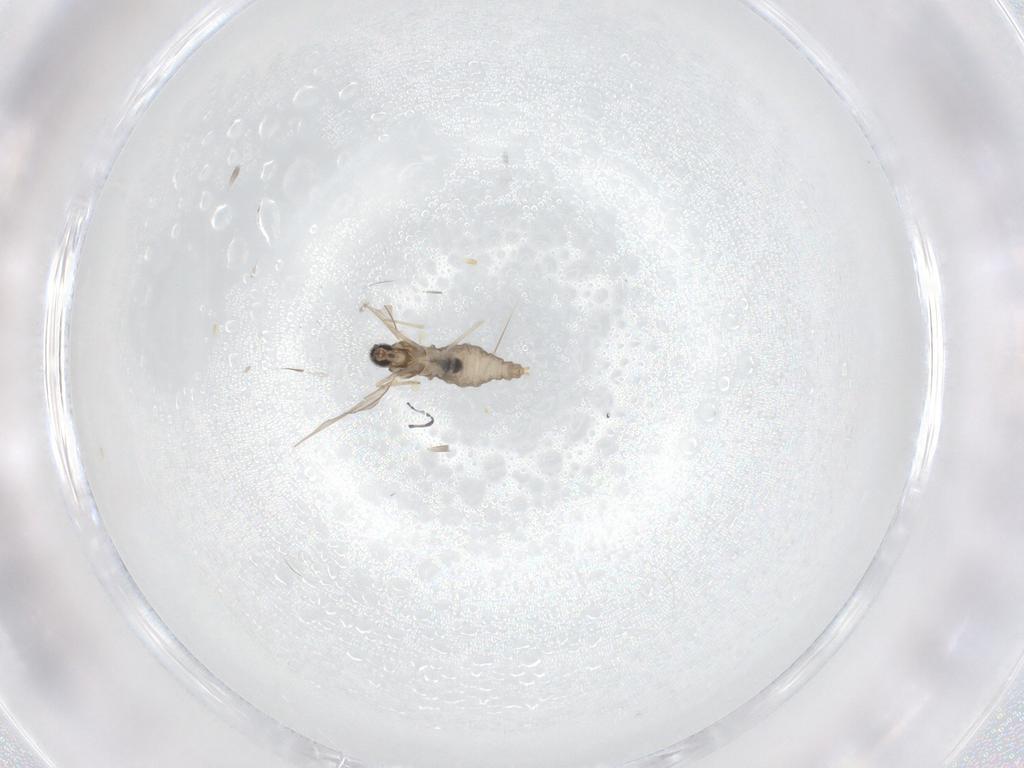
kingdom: Animalia
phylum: Arthropoda
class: Insecta
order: Diptera
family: Cecidomyiidae
